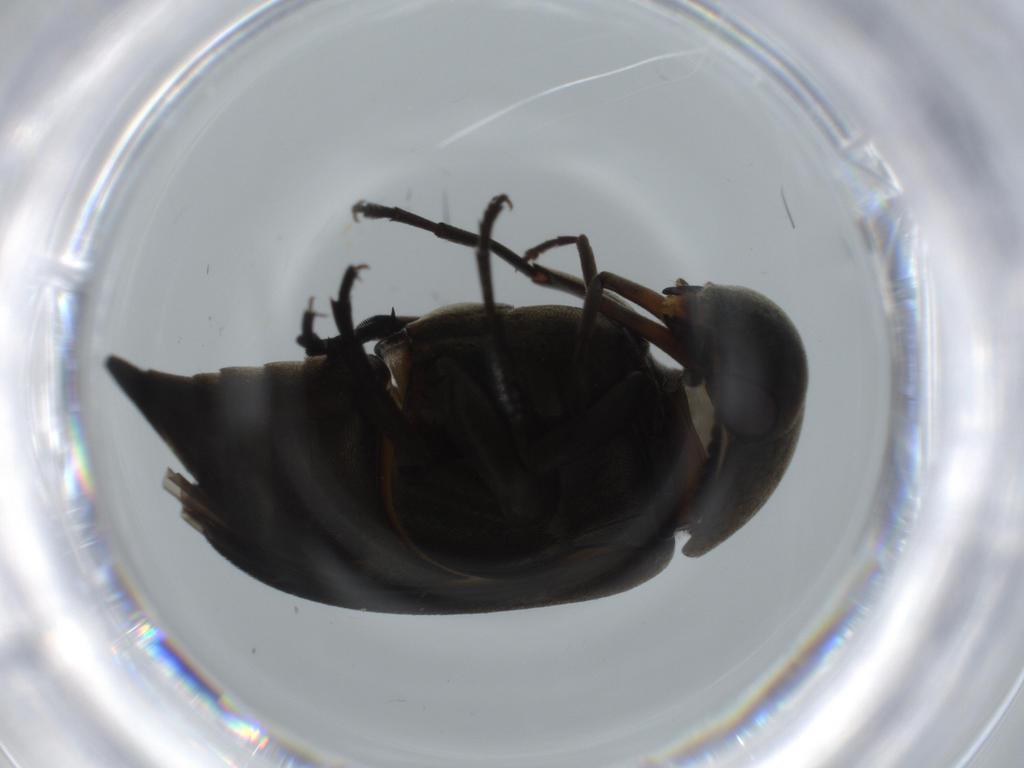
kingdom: Animalia
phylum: Arthropoda
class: Insecta
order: Coleoptera
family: Mordellidae
